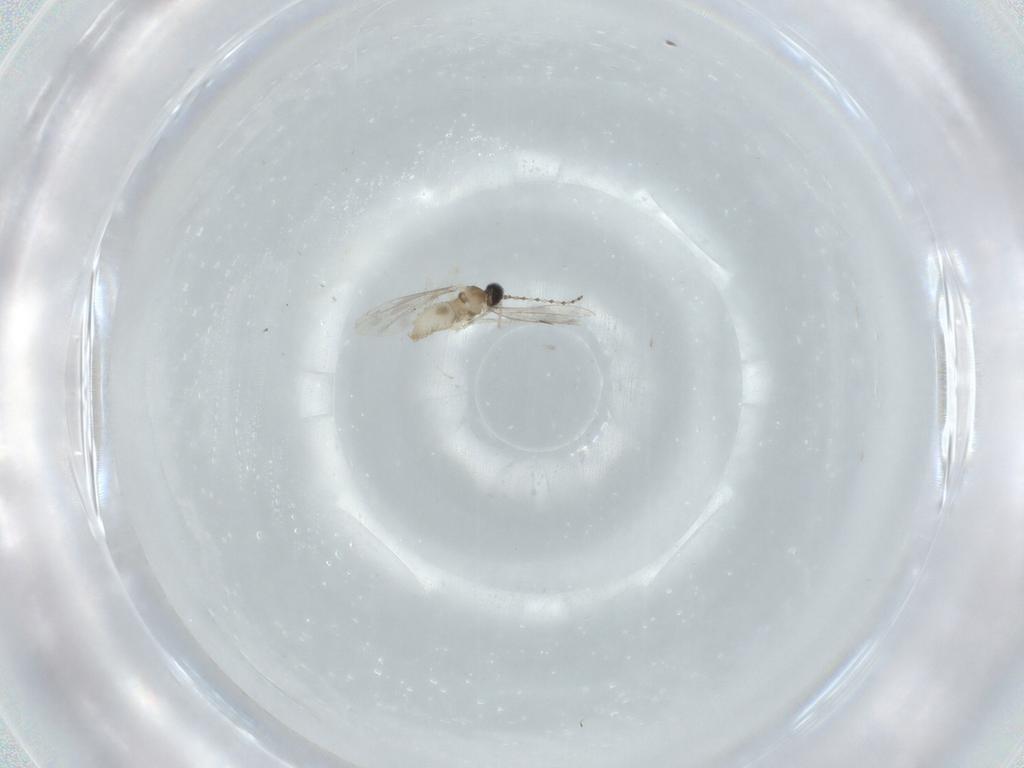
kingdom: Animalia
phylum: Arthropoda
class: Insecta
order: Diptera
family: Cecidomyiidae
